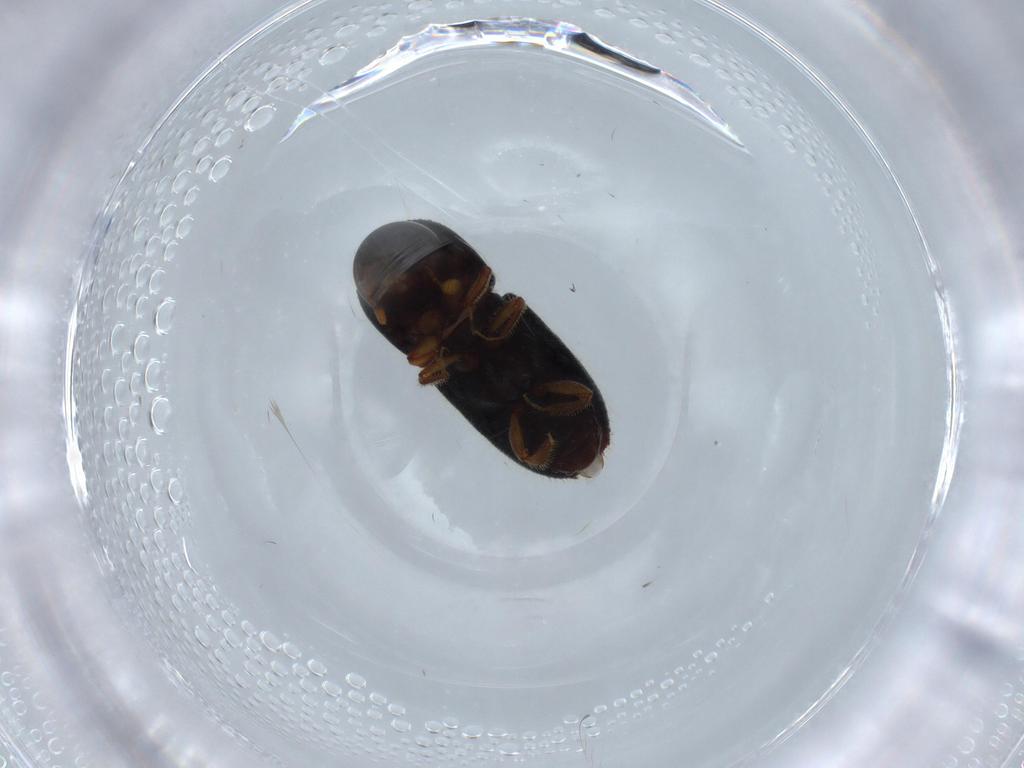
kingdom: Animalia
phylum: Arthropoda
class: Insecta
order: Coleoptera
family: Curculionidae
